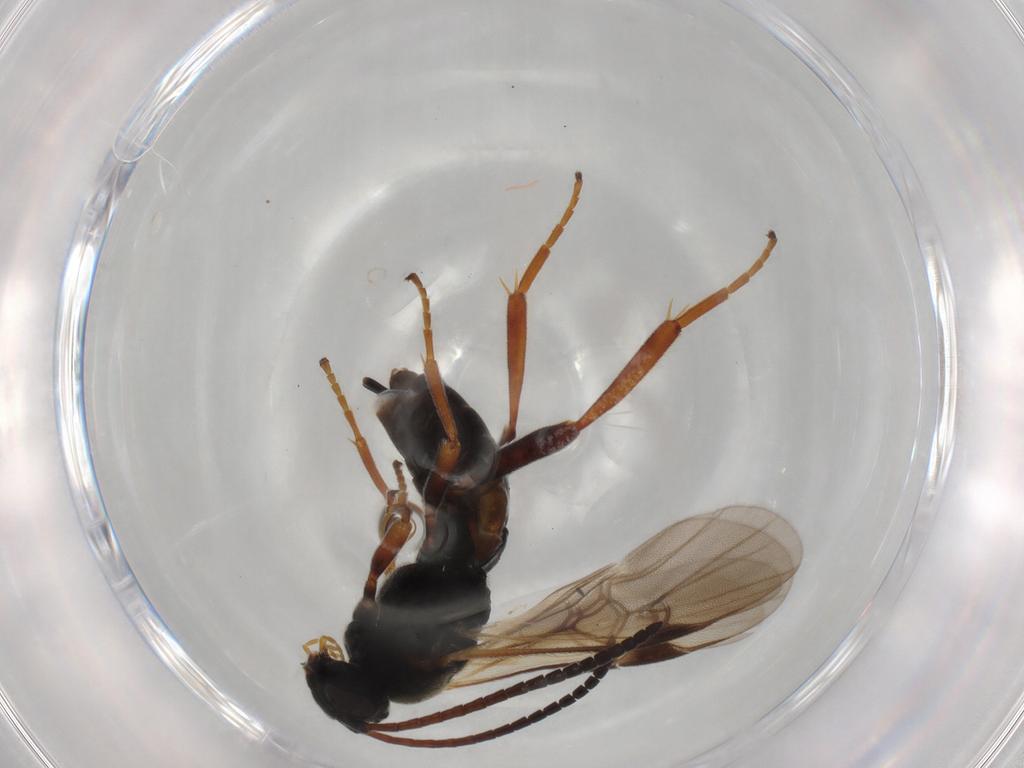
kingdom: Animalia
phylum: Arthropoda
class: Insecta
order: Hymenoptera
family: Braconidae
